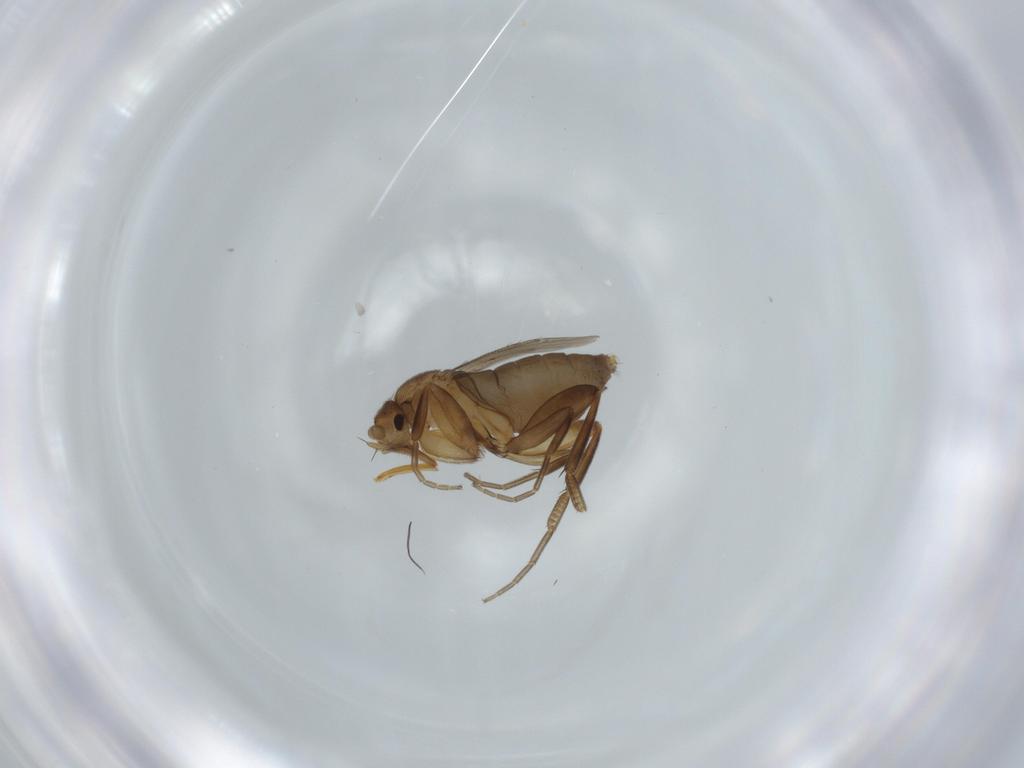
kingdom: Animalia
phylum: Arthropoda
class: Insecta
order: Diptera
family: Phoridae
